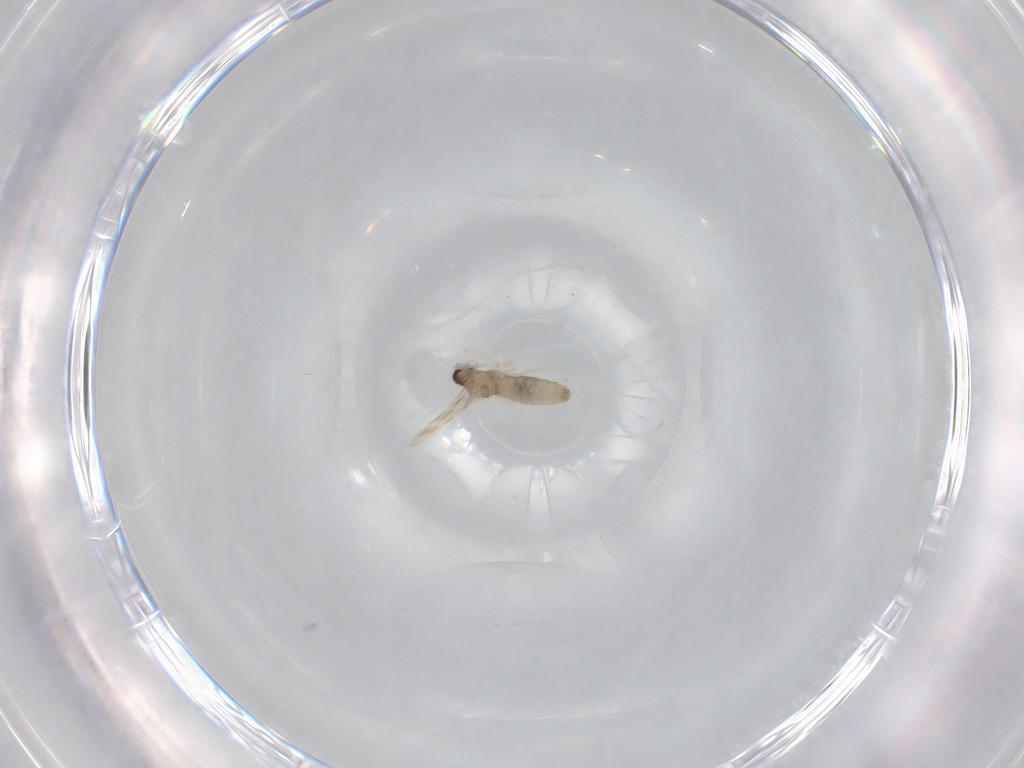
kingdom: Animalia
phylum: Arthropoda
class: Insecta
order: Diptera
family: Cecidomyiidae
